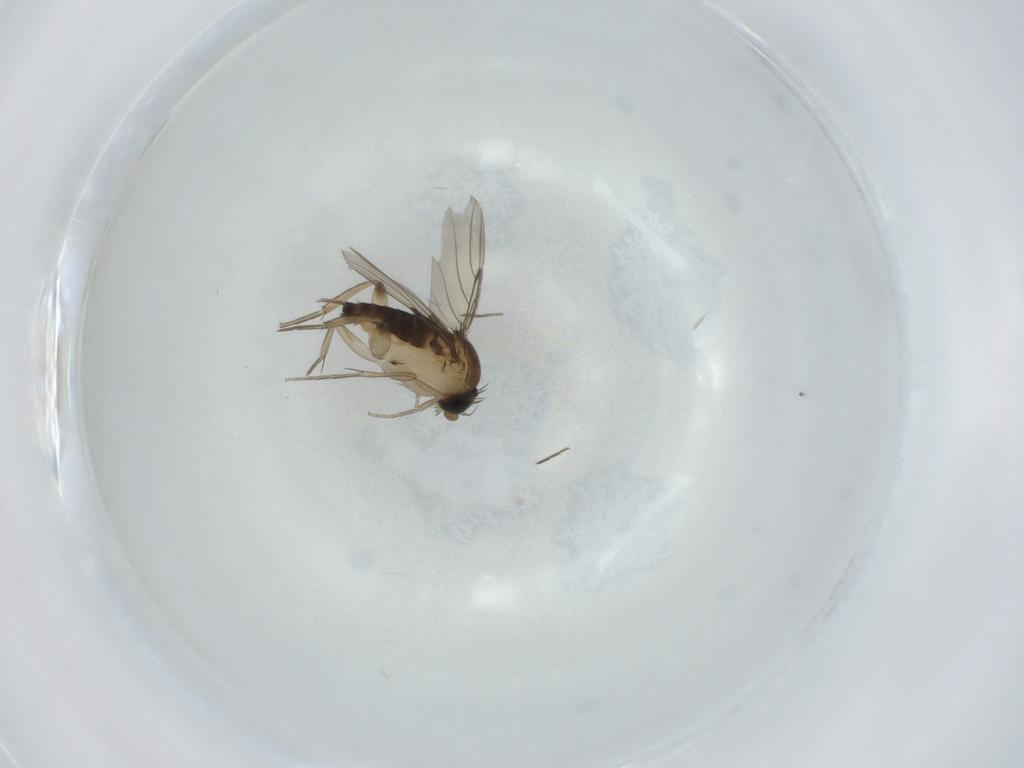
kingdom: Animalia
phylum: Arthropoda
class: Insecta
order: Diptera
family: Phoridae
